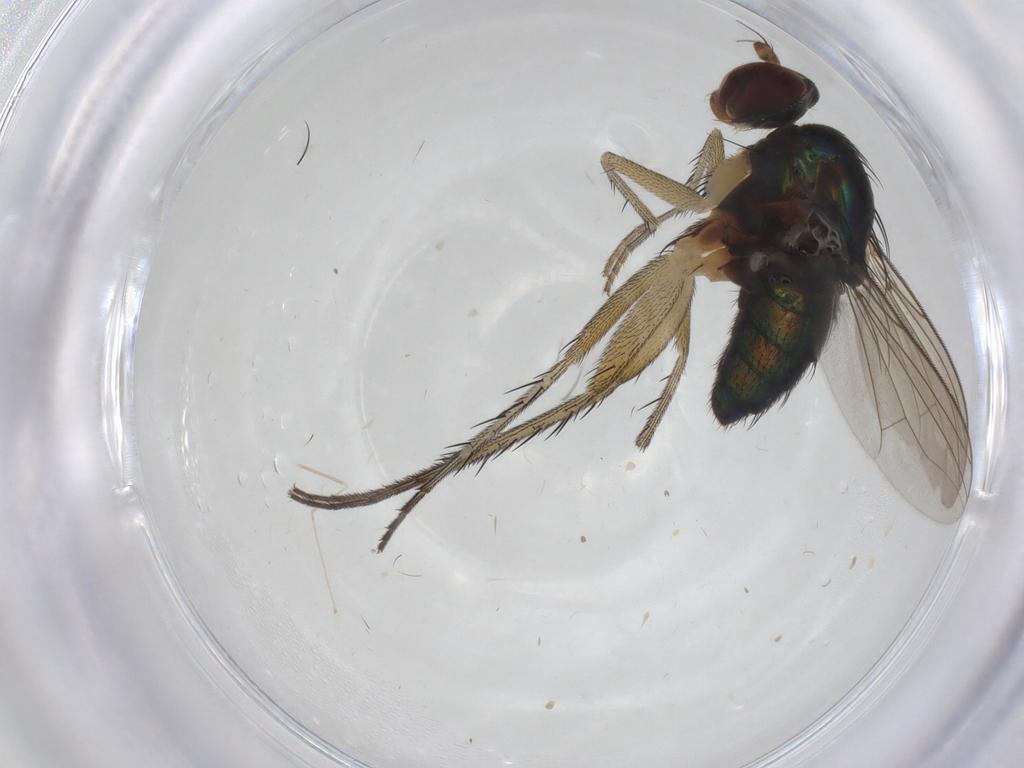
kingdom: Animalia
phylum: Arthropoda
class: Insecta
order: Diptera
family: Dolichopodidae
